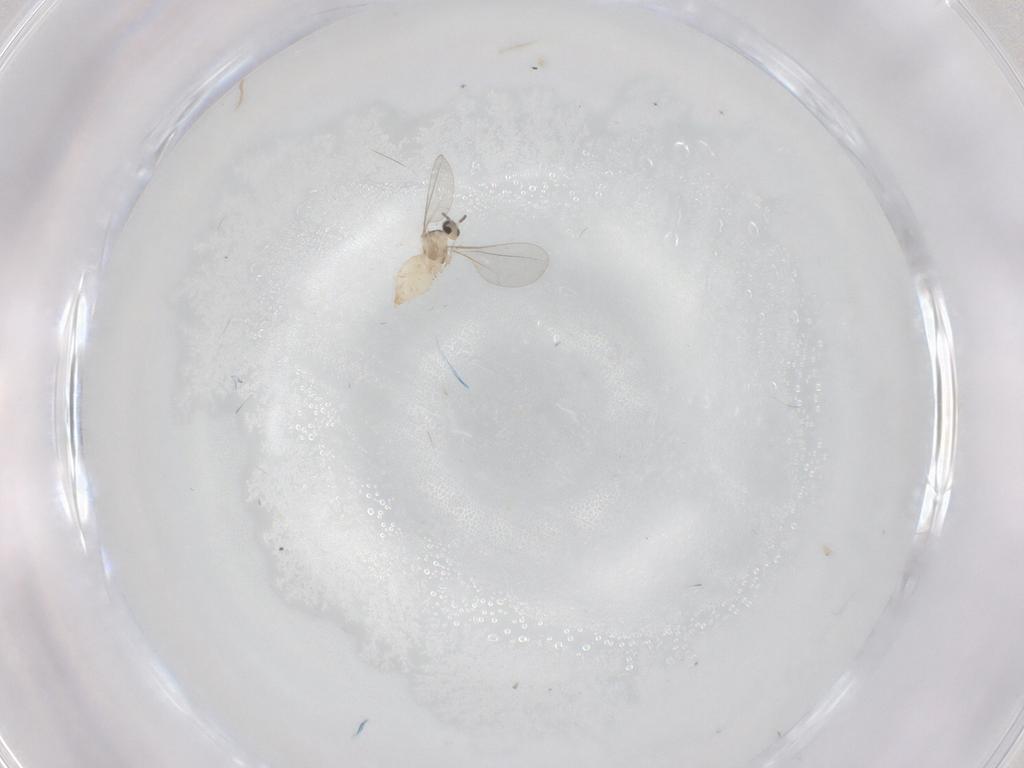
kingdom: Animalia
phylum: Arthropoda
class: Insecta
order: Diptera
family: Cecidomyiidae
